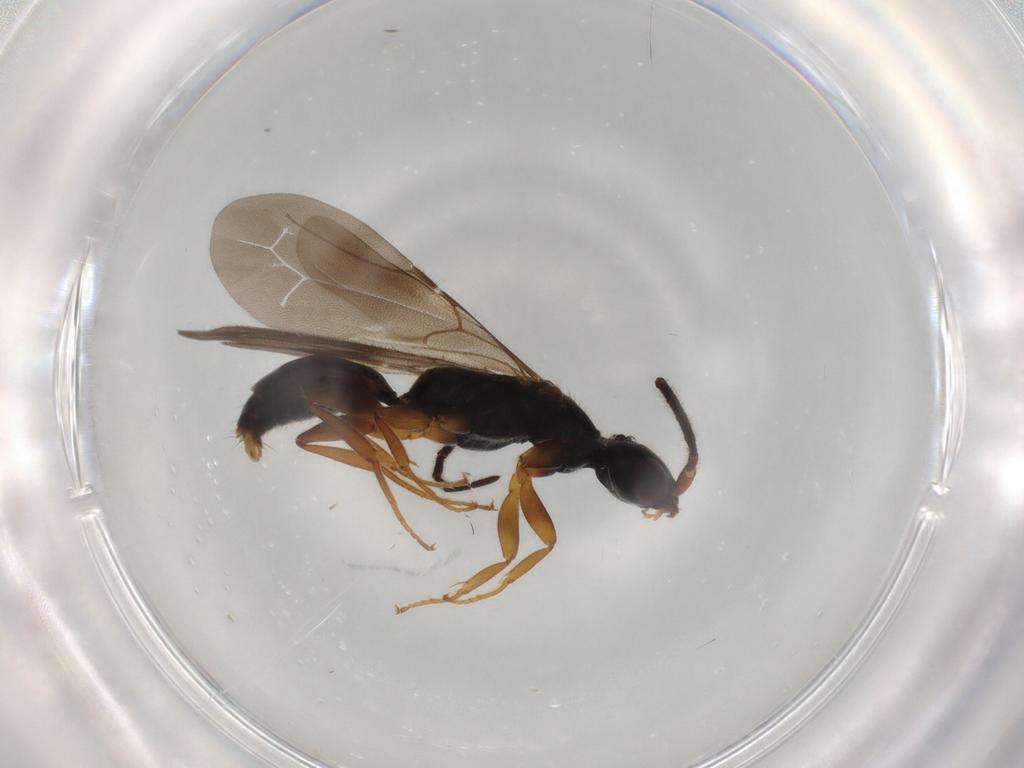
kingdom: Animalia
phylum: Arthropoda
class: Insecta
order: Hymenoptera
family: Bethylidae
